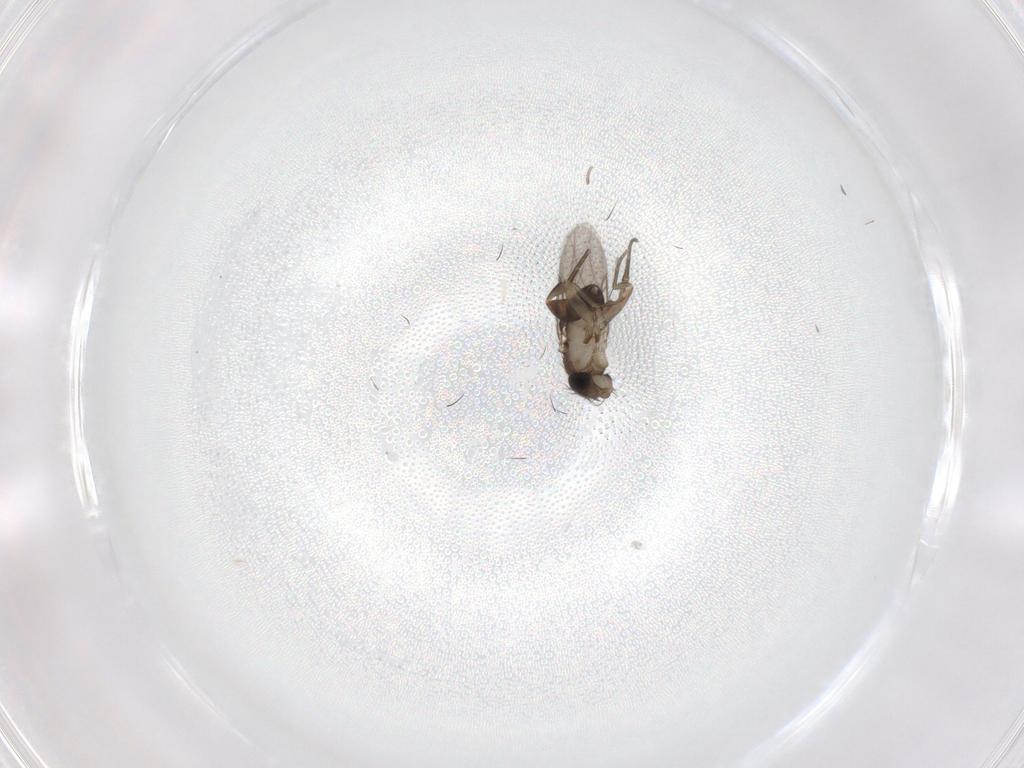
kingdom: Animalia
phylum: Arthropoda
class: Insecta
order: Diptera
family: Phoridae
